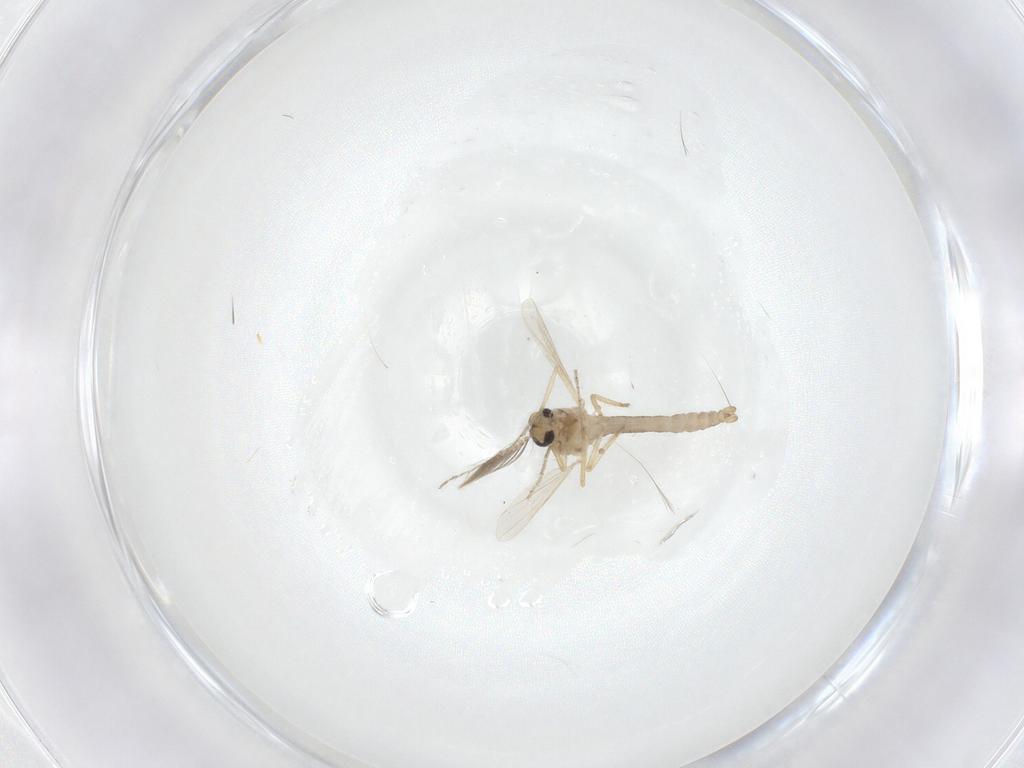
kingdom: Animalia
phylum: Arthropoda
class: Insecta
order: Diptera
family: Ceratopogonidae
